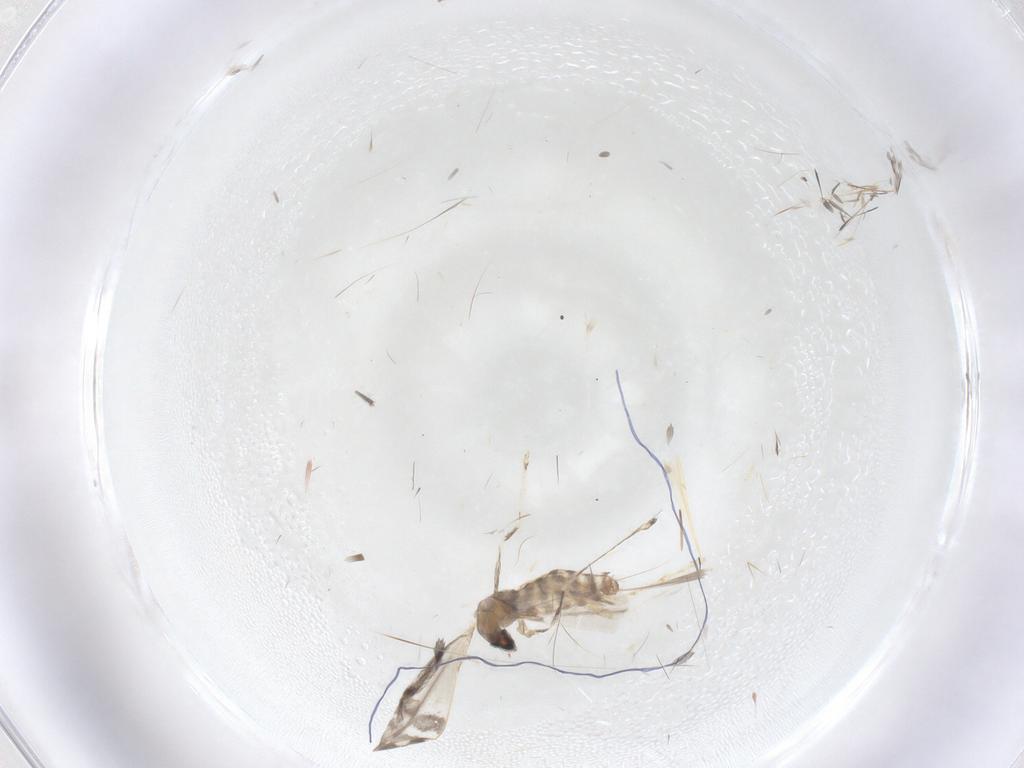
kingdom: Animalia
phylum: Arthropoda
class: Insecta
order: Diptera
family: Cecidomyiidae
